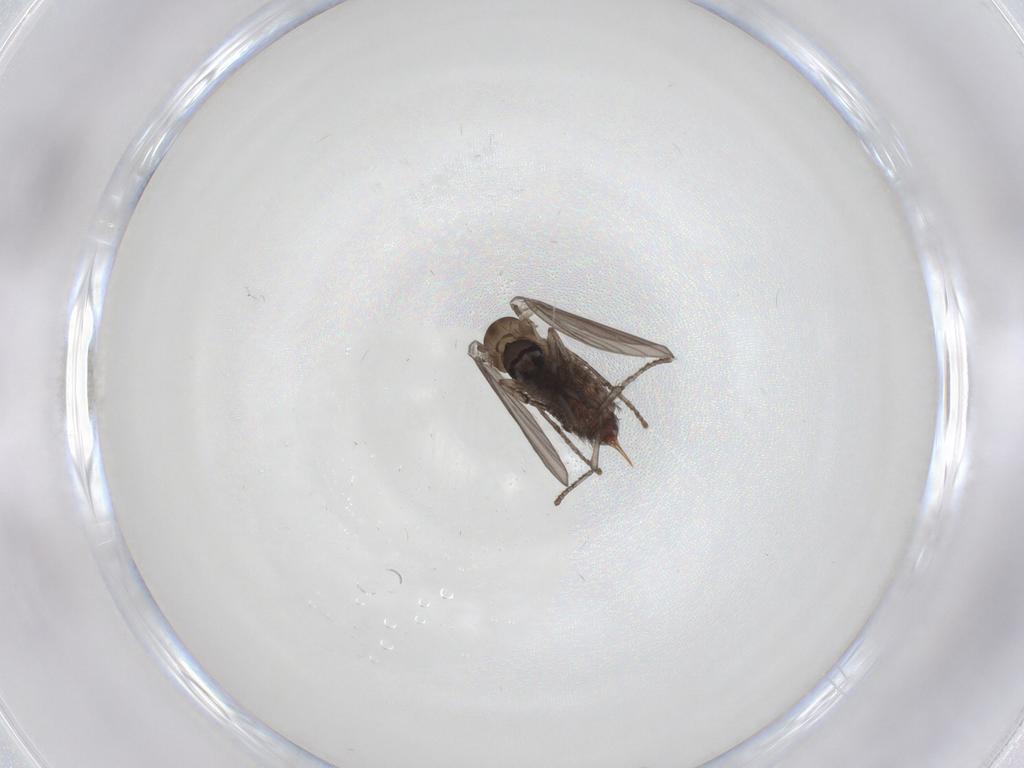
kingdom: Animalia
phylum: Arthropoda
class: Insecta
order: Diptera
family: Psychodidae
